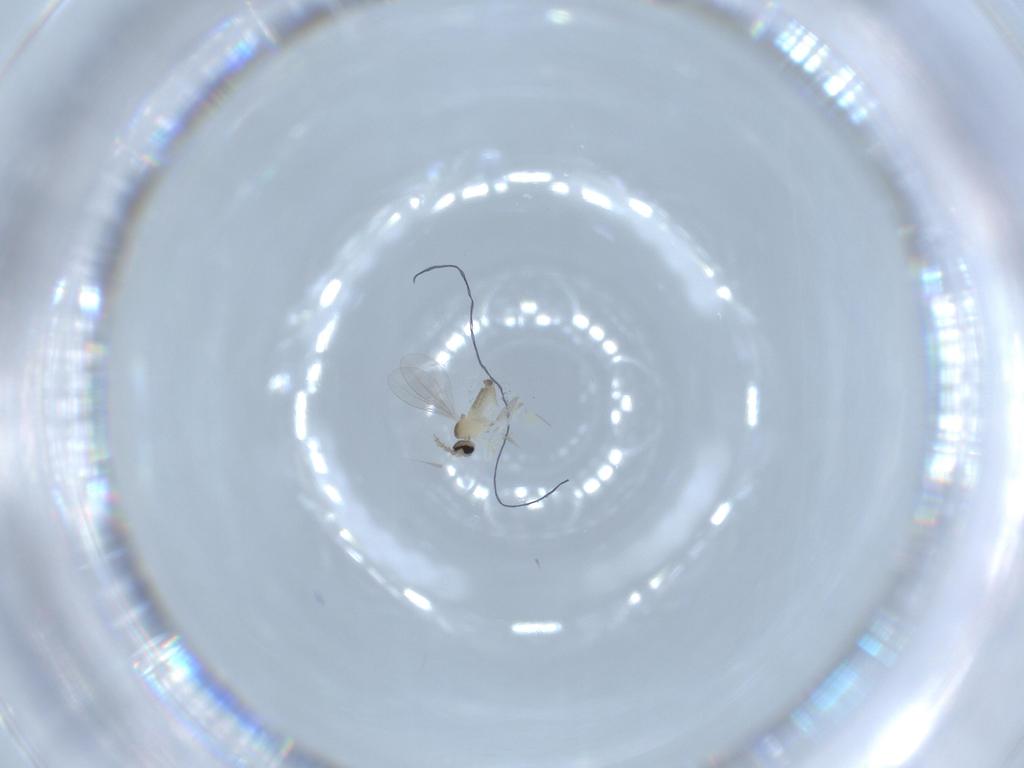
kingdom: Animalia
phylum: Arthropoda
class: Insecta
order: Diptera
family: Cecidomyiidae
